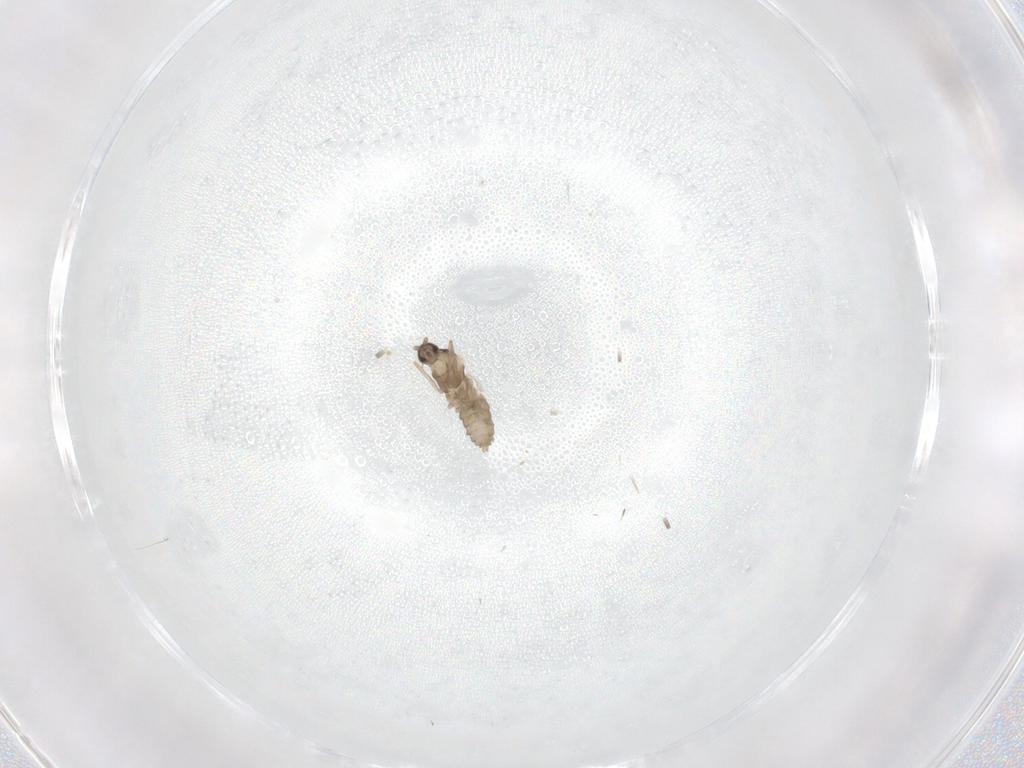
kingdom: Animalia
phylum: Arthropoda
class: Insecta
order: Diptera
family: Cecidomyiidae
